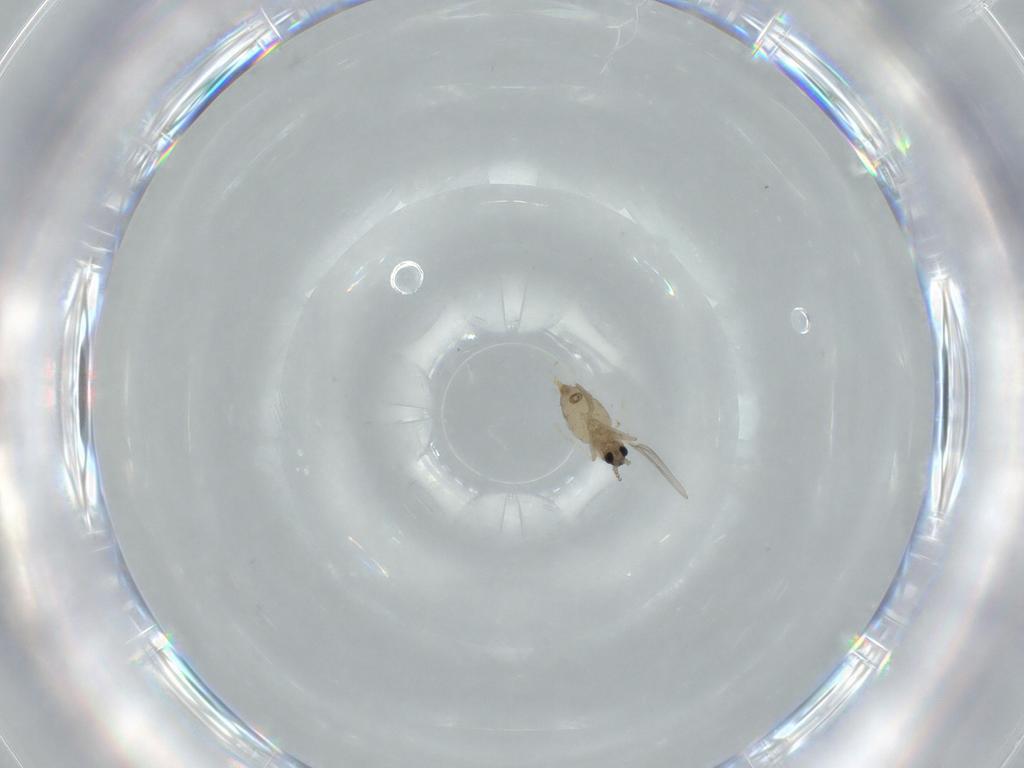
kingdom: Animalia
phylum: Arthropoda
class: Insecta
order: Diptera
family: Cecidomyiidae
